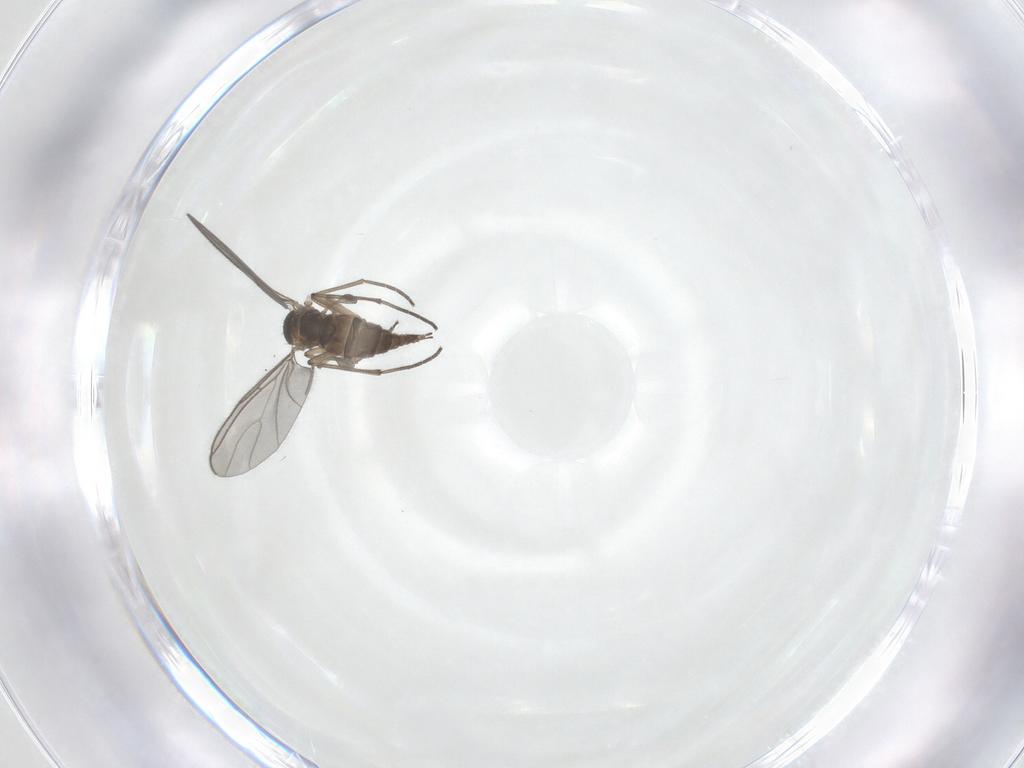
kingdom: Animalia
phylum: Arthropoda
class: Insecta
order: Diptera
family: Sciaridae
